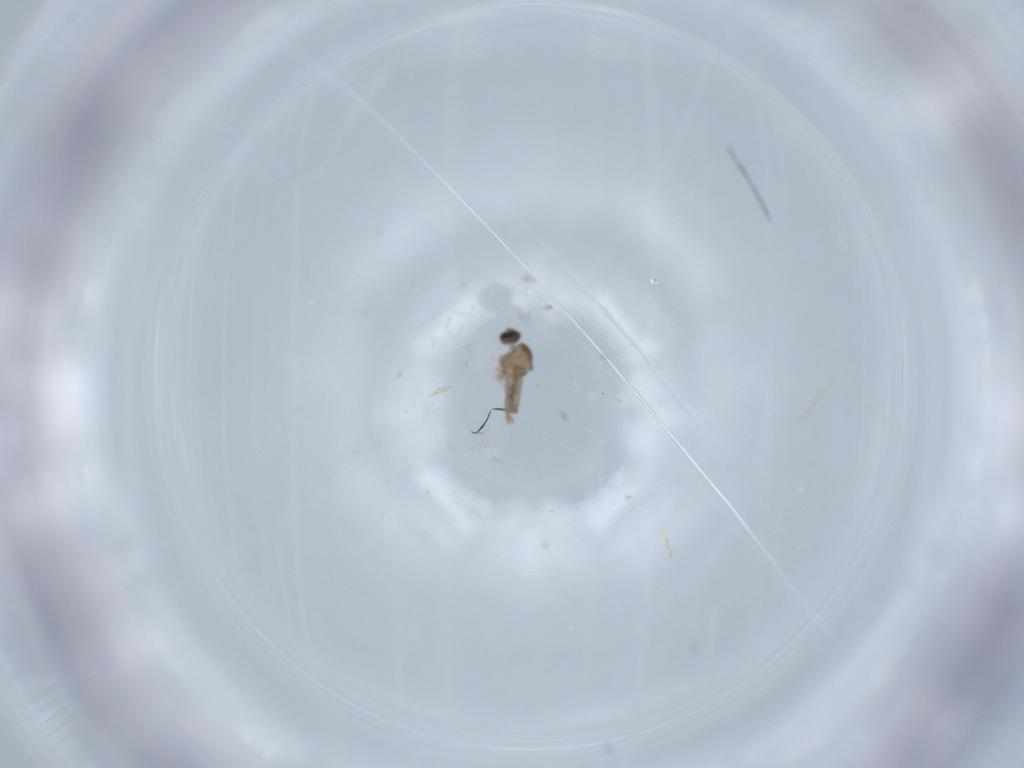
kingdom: Animalia
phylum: Arthropoda
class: Insecta
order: Diptera
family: Cecidomyiidae
